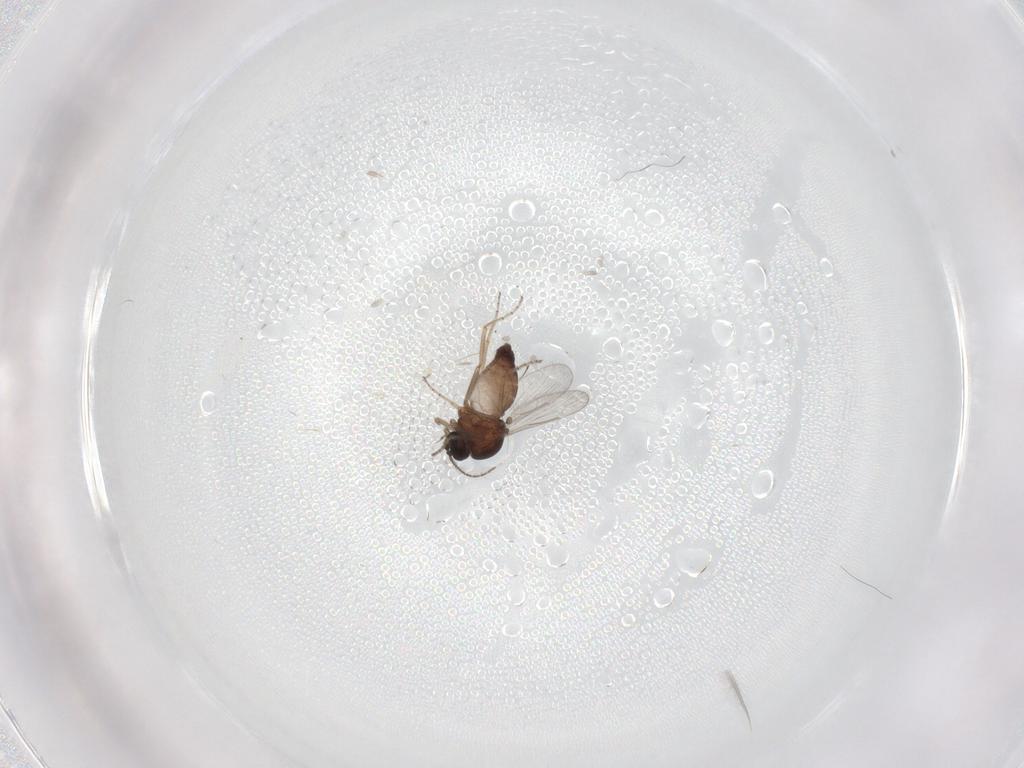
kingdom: Animalia
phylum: Arthropoda
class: Insecta
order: Diptera
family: Ceratopogonidae
